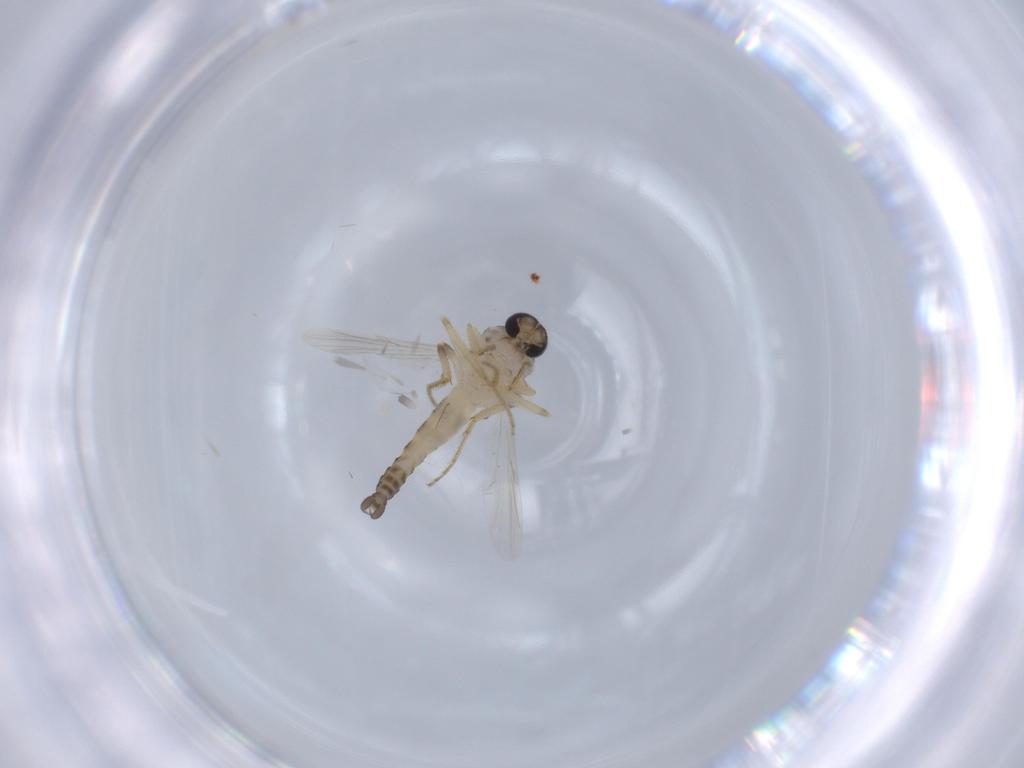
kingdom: Animalia
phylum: Arthropoda
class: Insecta
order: Diptera
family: Ceratopogonidae
